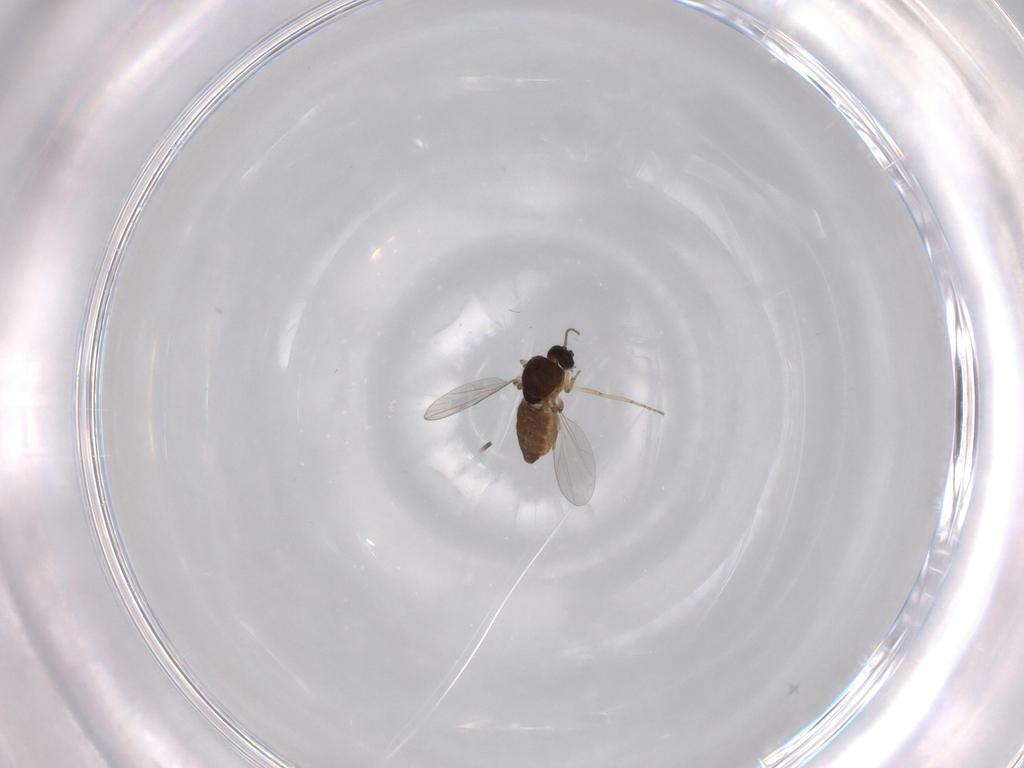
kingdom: Animalia
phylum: Arthropoda
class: Insecta
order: Diptera
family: Ceratopogonidae
